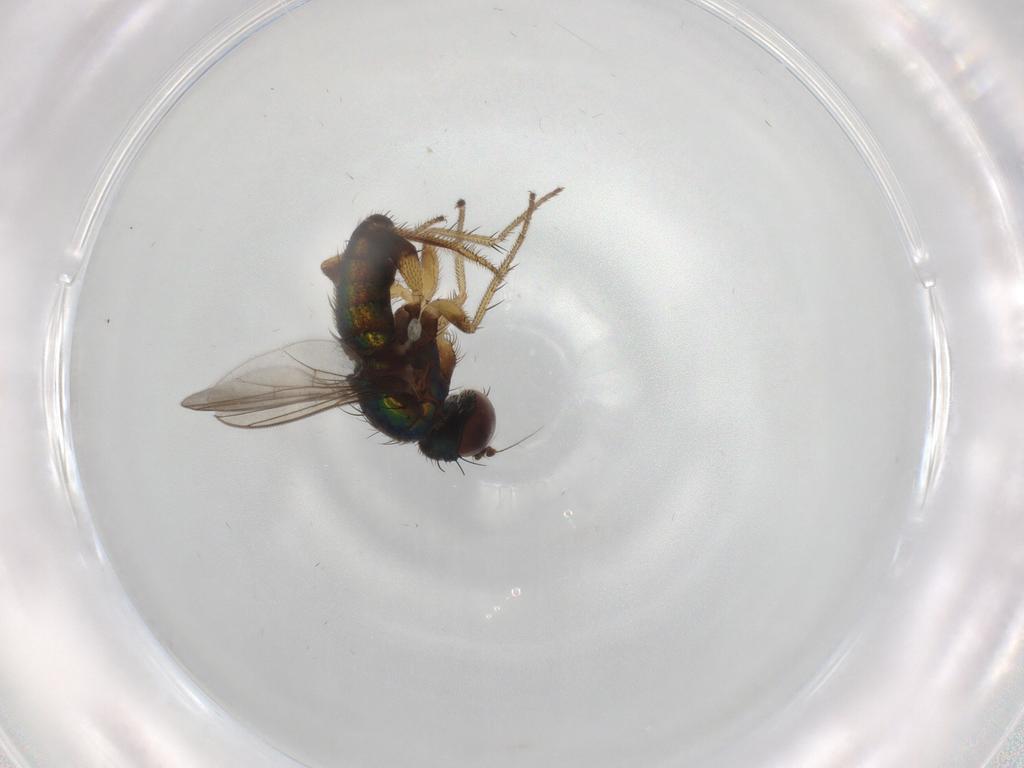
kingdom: Animalia
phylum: Arthropoda
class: Insecta
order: Diptera
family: Dolichopodidae
